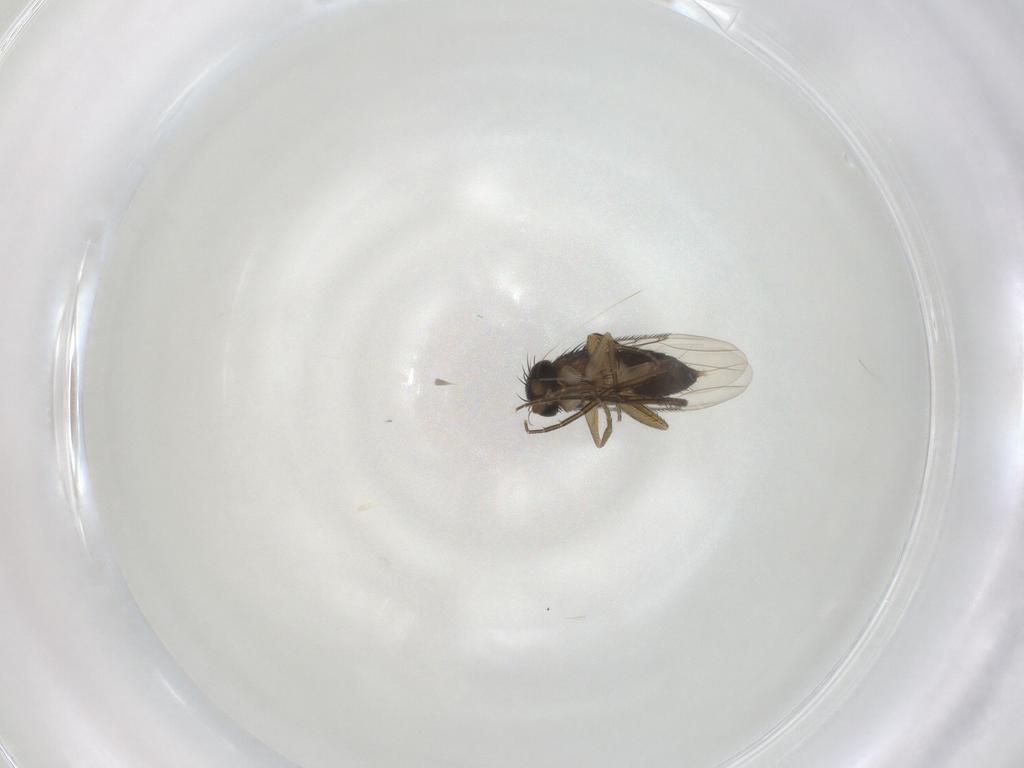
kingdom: Animalia
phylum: Arthropoda
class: Insecta
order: Diptera
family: Chironomidae
